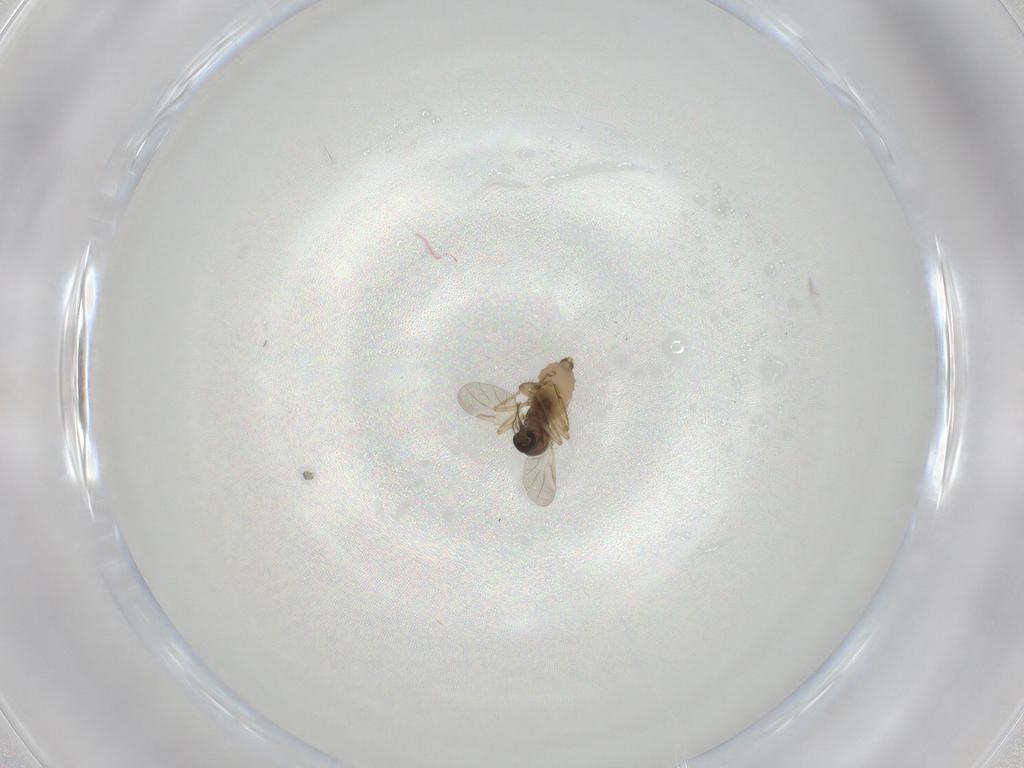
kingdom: Animalia
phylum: Arthropoda
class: Insecta
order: Diptera
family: Ceratopogonidae
